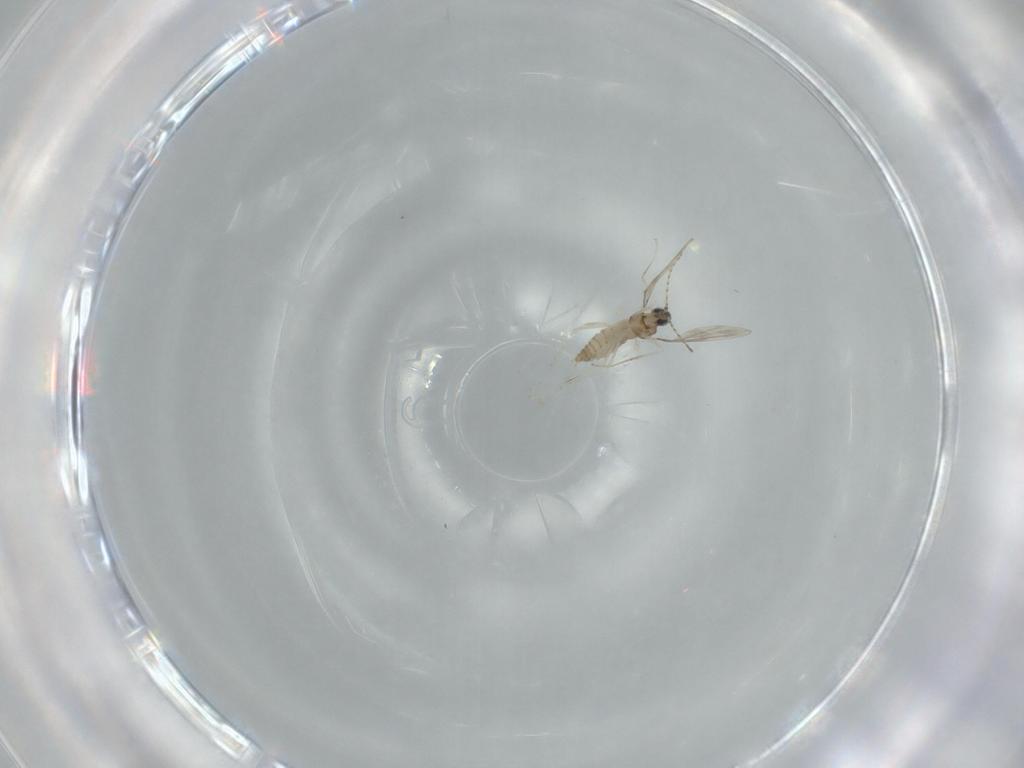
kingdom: Animalia
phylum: Arthropoda
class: Insecta
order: Diptera
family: Cecidomyiidae
